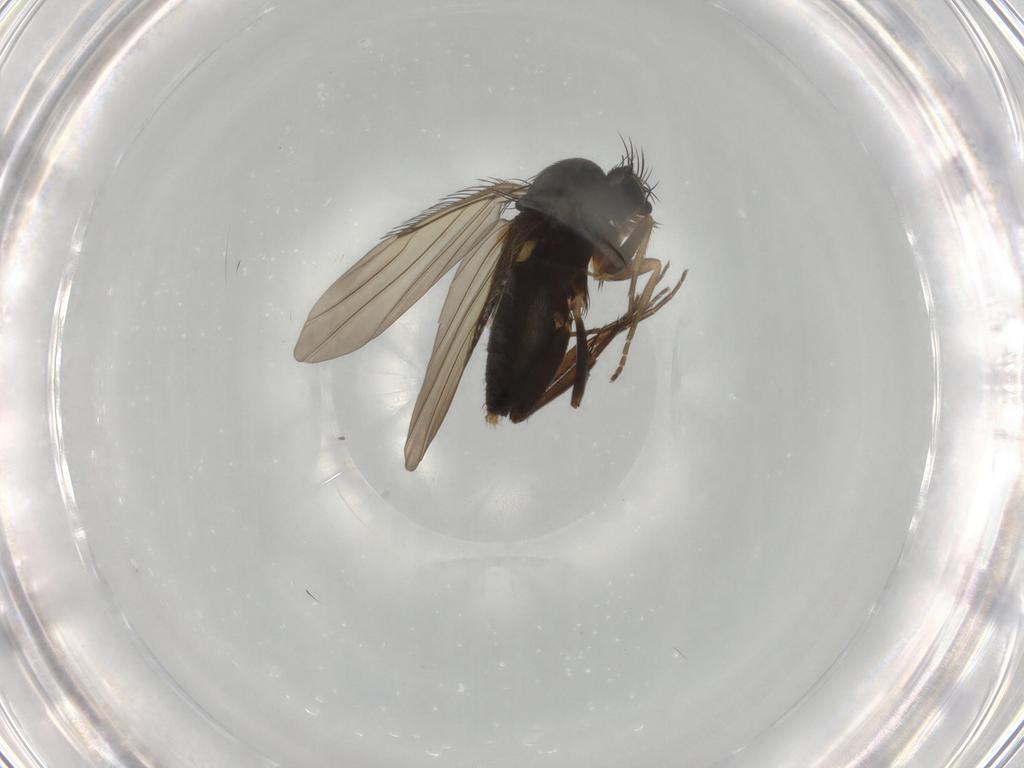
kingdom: Animalia
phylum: Arthropoda
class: Insecta
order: Diptera
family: Phoridae
